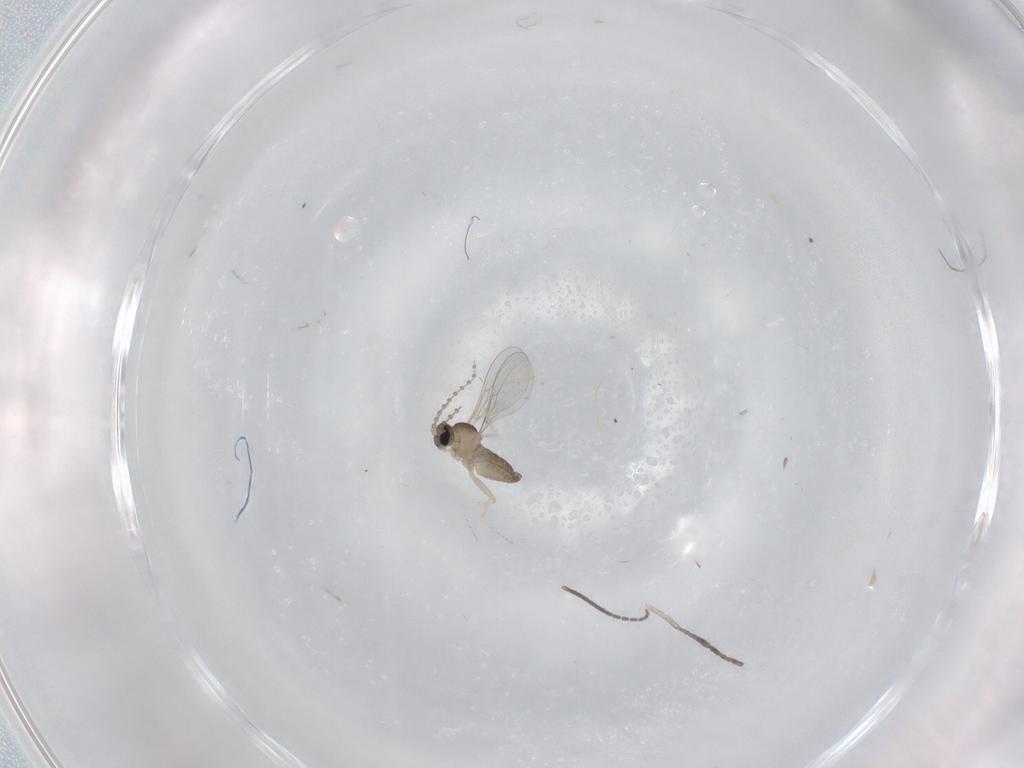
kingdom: Animalia
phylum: Arthropoda
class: Insecta
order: Diptera
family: Cecidomyiidae
